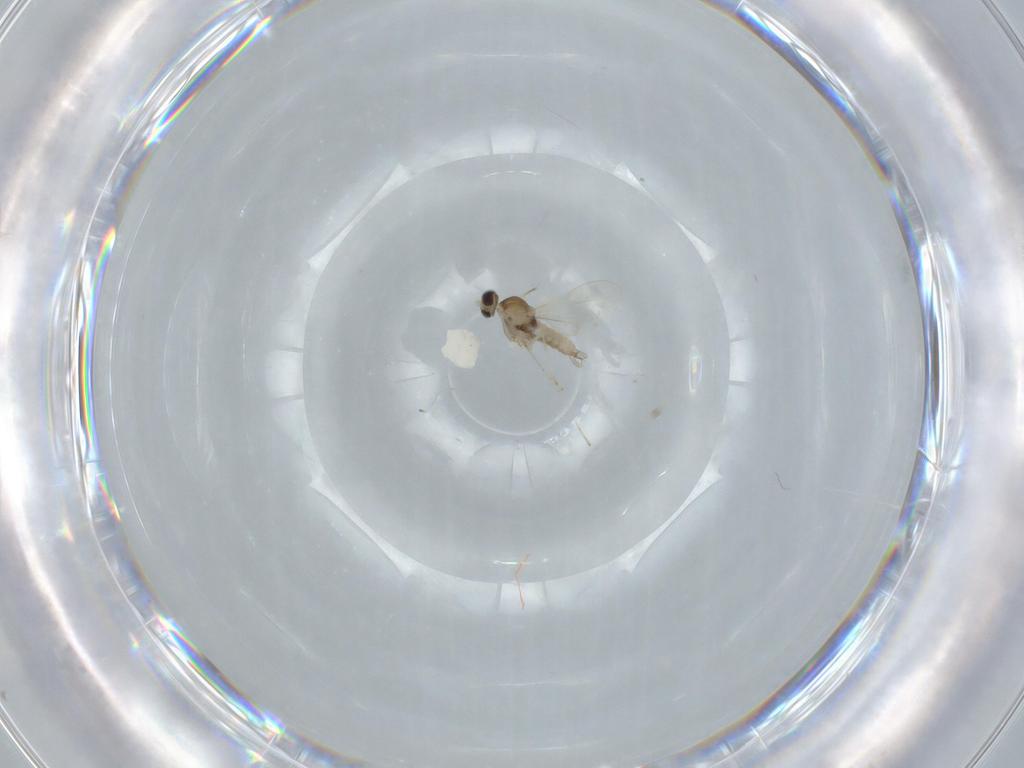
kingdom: Animalia
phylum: Arthropoda
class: Insecta
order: Diptera
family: Cecidomyiidae
